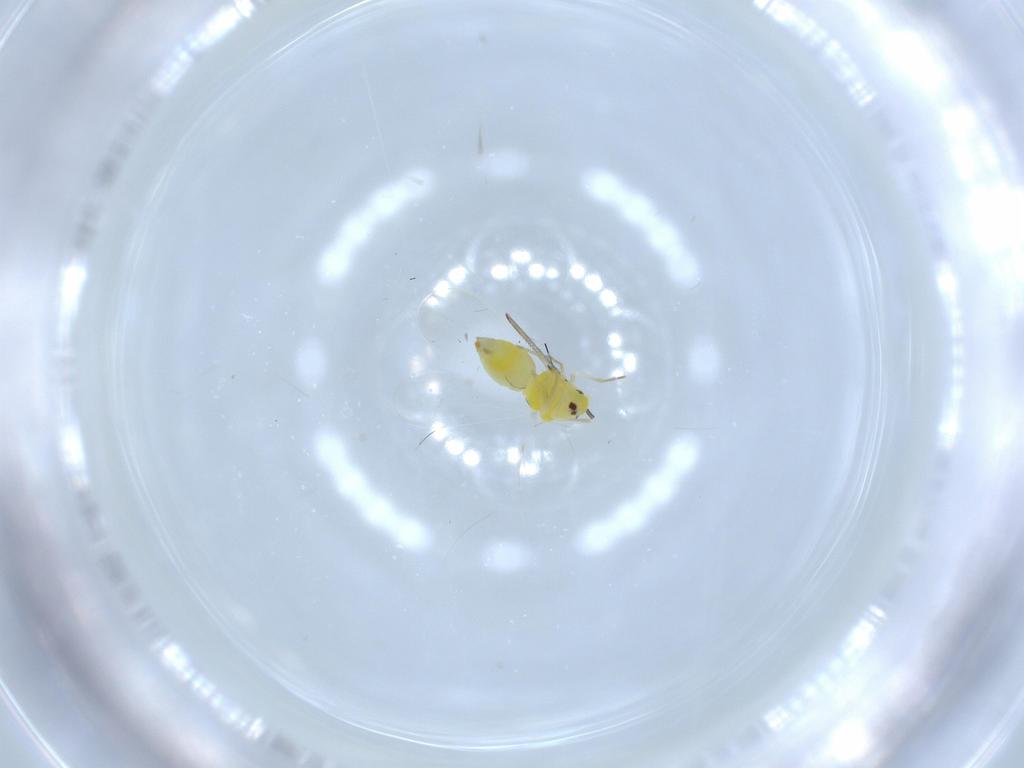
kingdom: Animalia
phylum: Arthropoda
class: Insecta
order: Hemiptera
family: Aleyrodidae
